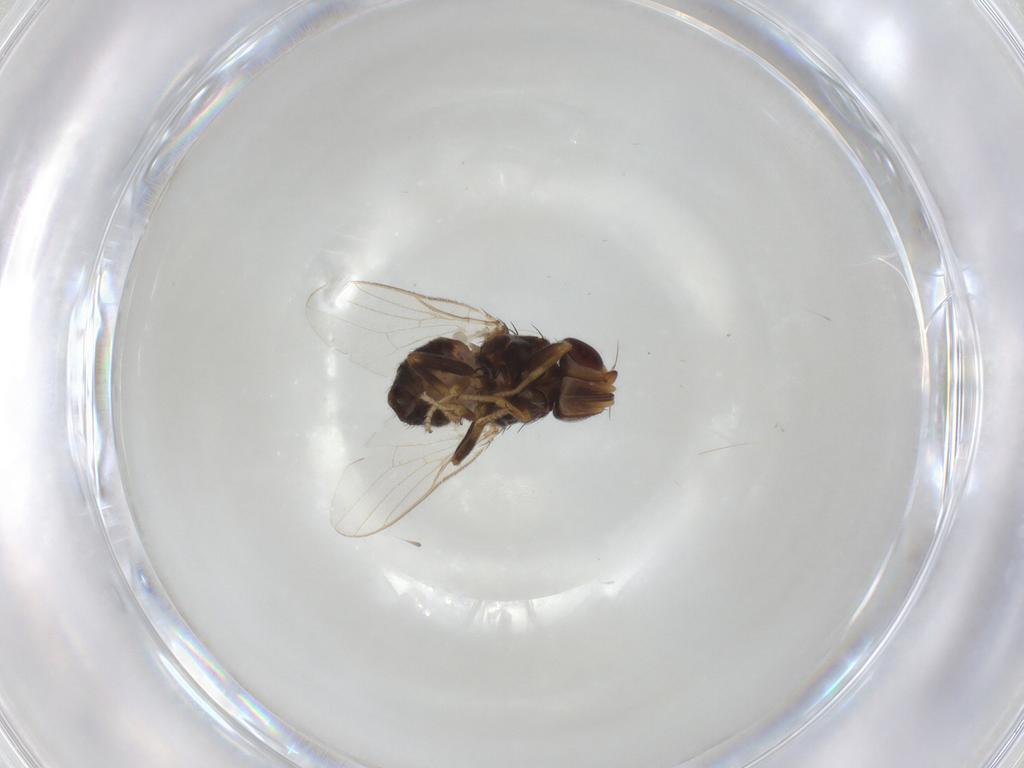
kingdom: Animalia
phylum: Arthropoda
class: Insecta
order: Diptera
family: Chloropidae
